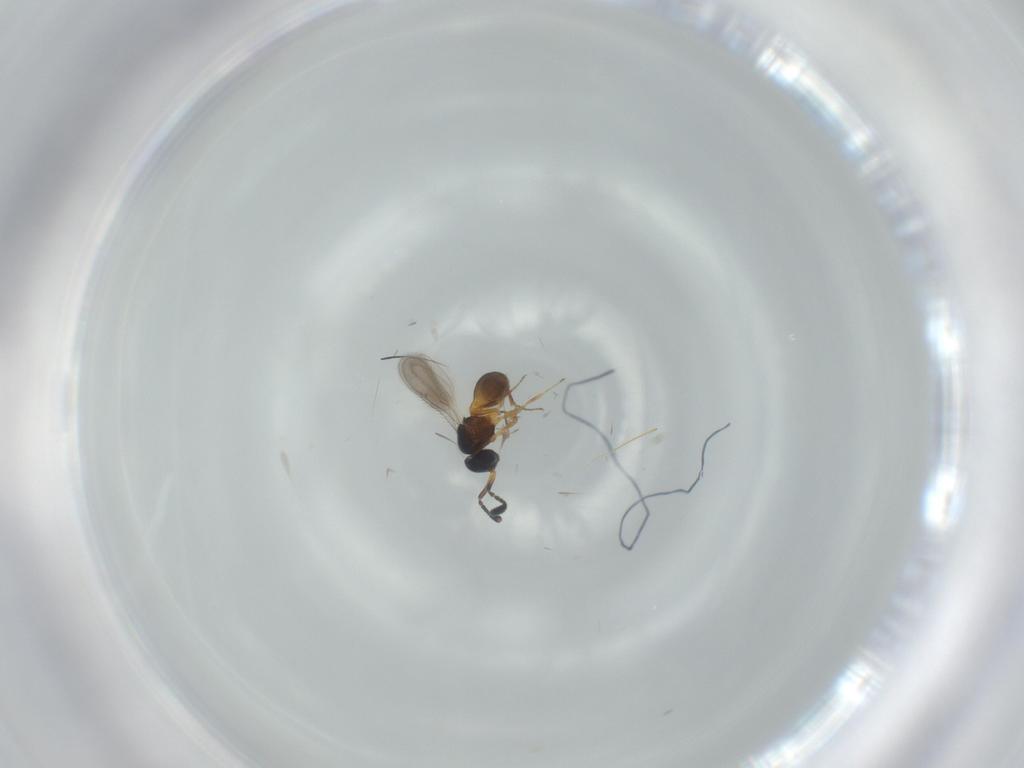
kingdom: Animalia
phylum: Arthropoda
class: Insecta
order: Hymenoptera
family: Scelionidae
